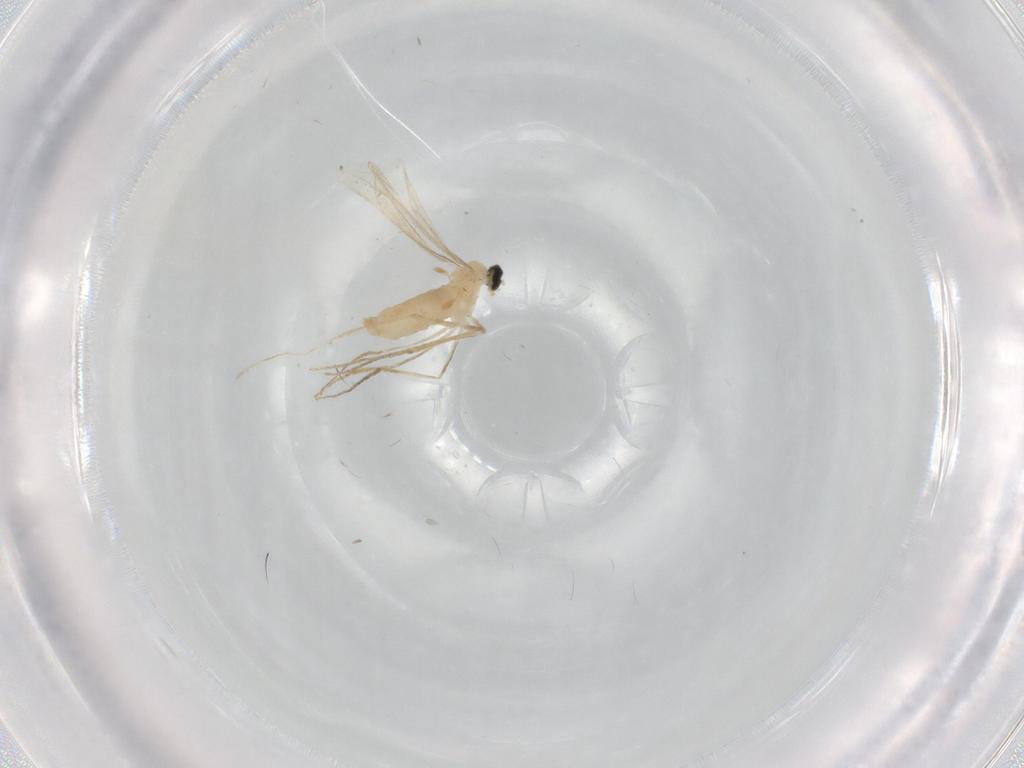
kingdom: Animalia
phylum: Arthropoda
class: Insecta
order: Diptera
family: Cecidomyiidae
